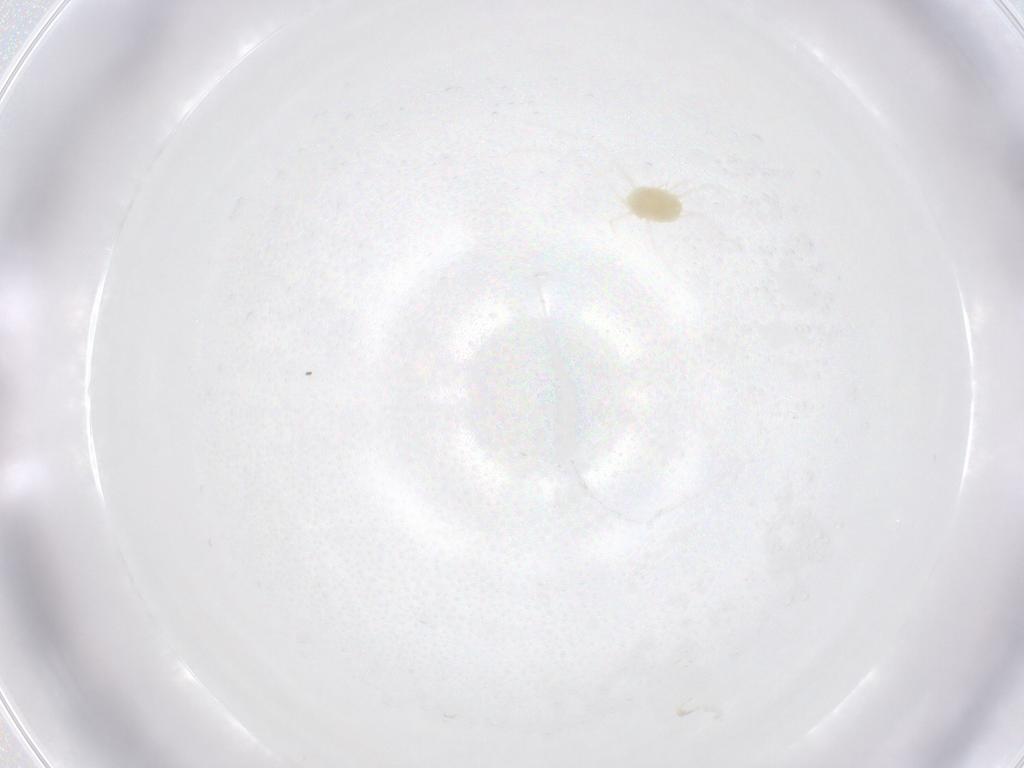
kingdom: Animalia
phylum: Arthropoda
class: Arachnida
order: Trombidiformes
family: Tetranychidae
